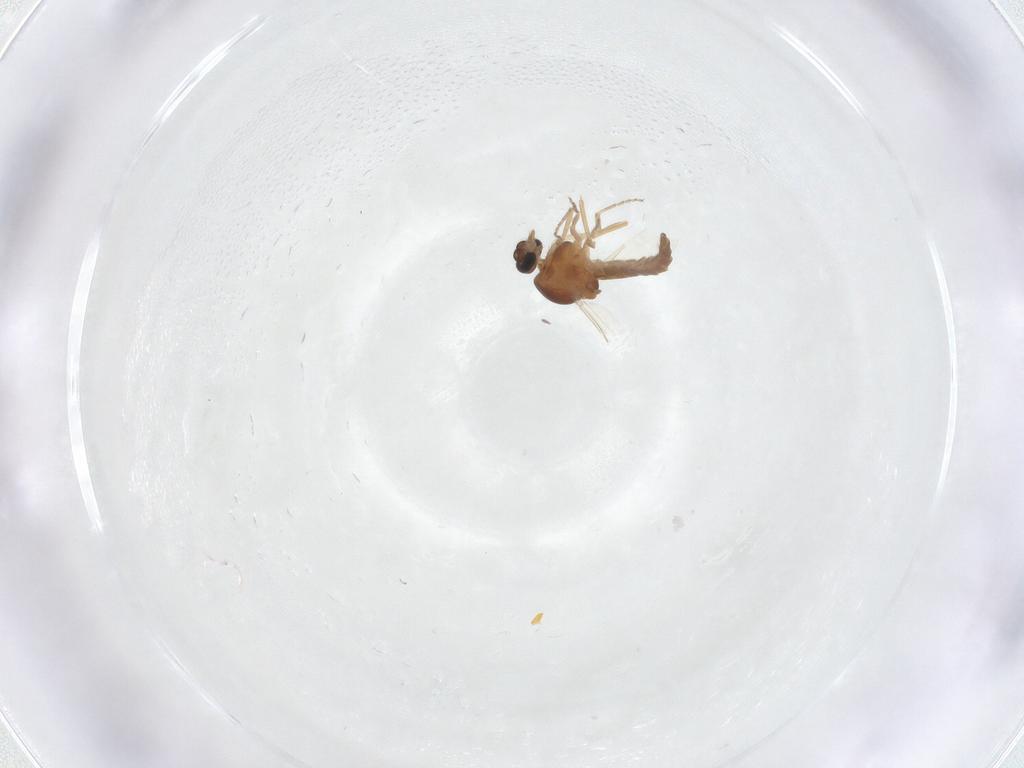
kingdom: Animalia
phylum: Arthropoda
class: Insecta
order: Diptera
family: Ceratopogonidae
